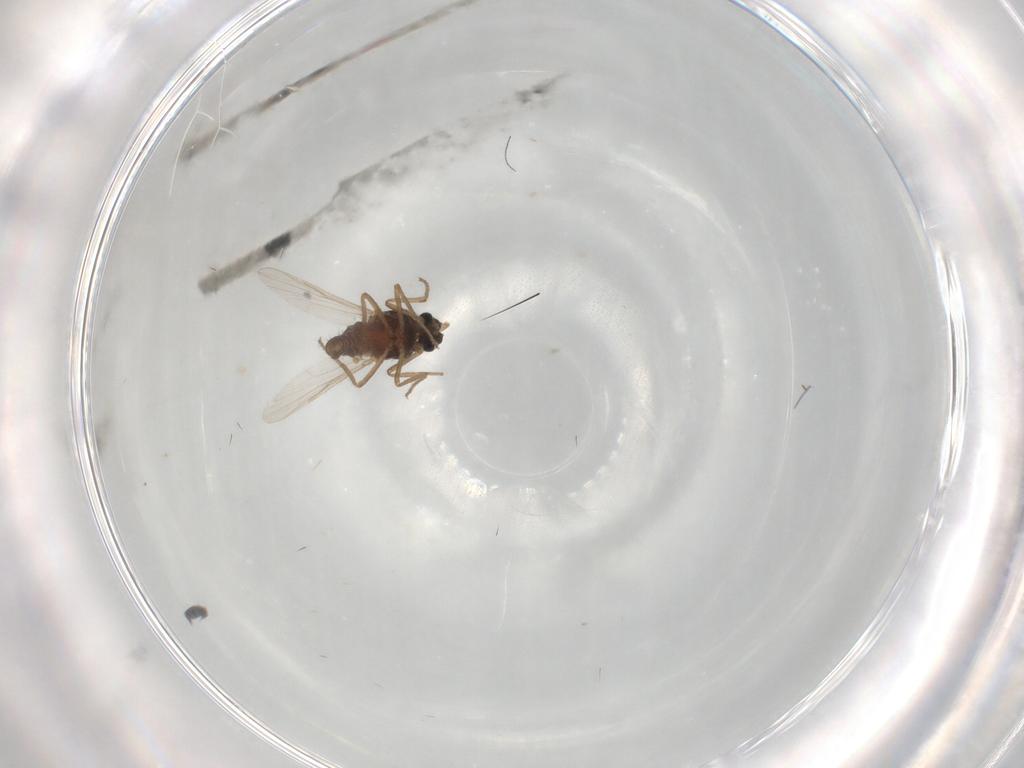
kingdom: Animalia
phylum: Arthropoda
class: Insecta
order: Diptera
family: Ceratopogonidae
